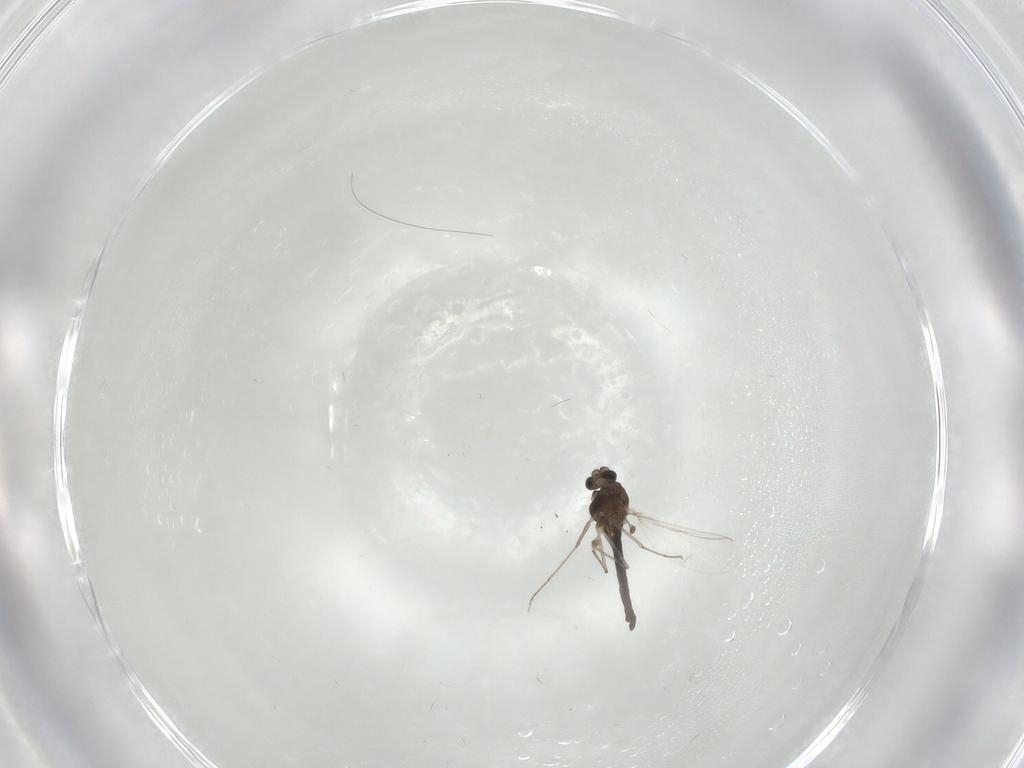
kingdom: Animalia
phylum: Arthropoda
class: Insecta
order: Diptera
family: Chironomidae
